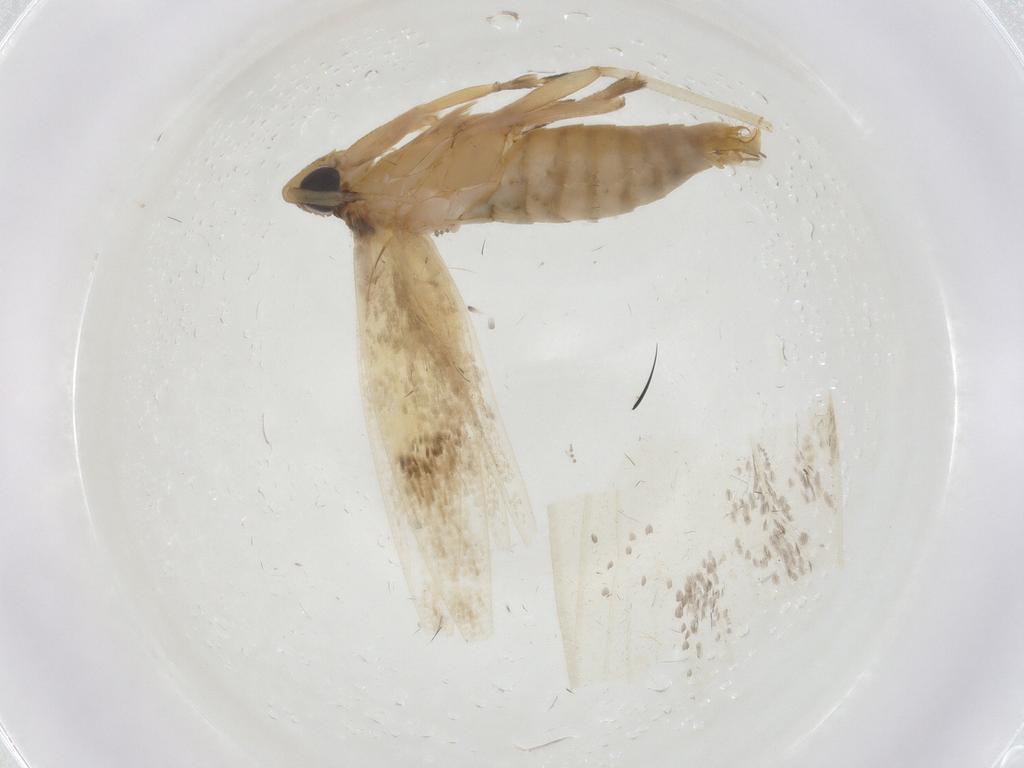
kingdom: Animalia
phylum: Arthropoda
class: Insecta
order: Lepidoptera
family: Tineidae
